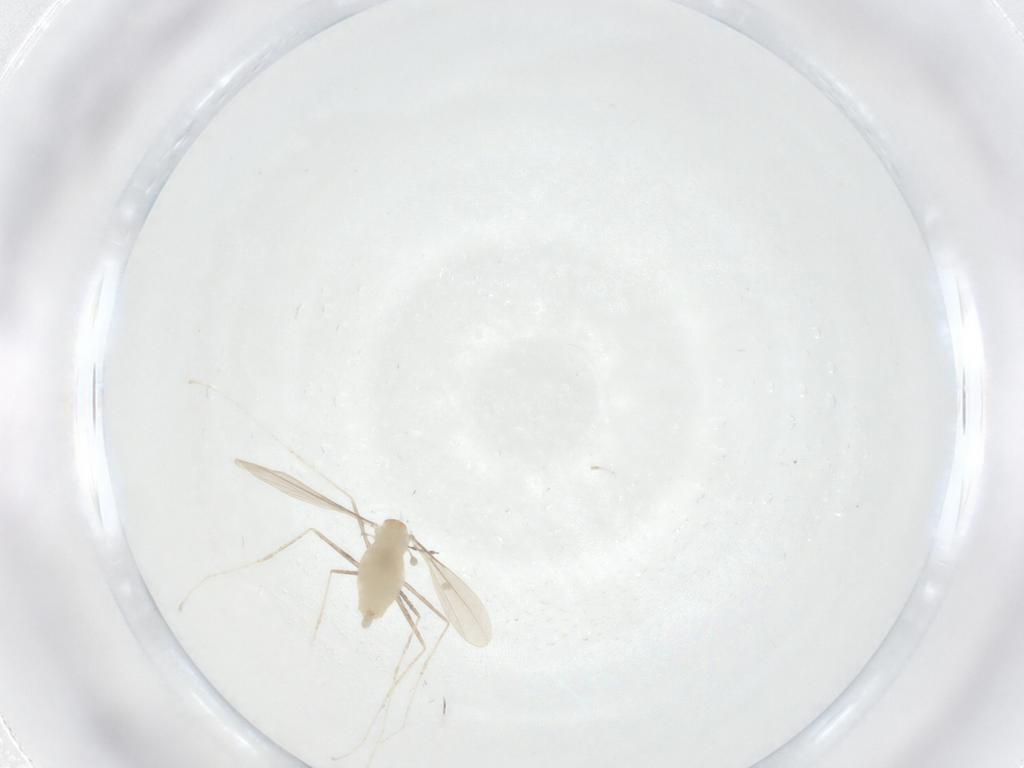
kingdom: Animalia
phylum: Arthropoda
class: Insecta
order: Diptera
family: Cecidomyiidae
